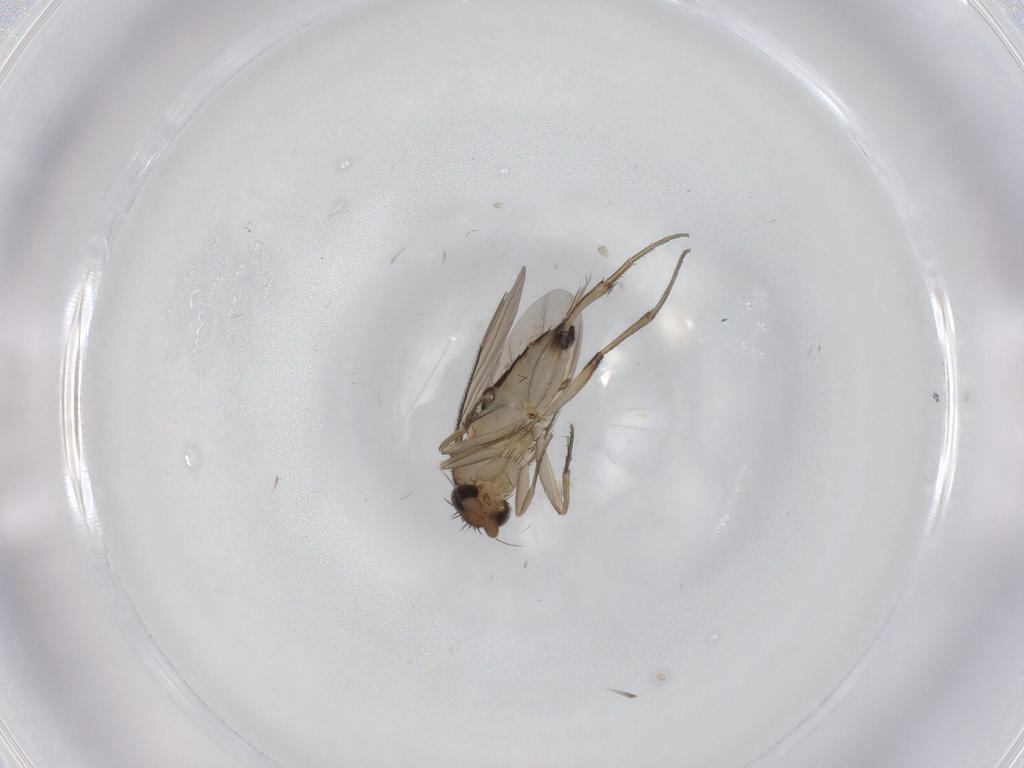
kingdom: Animalia
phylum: Arthropoda
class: Insecta
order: Diptera
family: Phoridae
